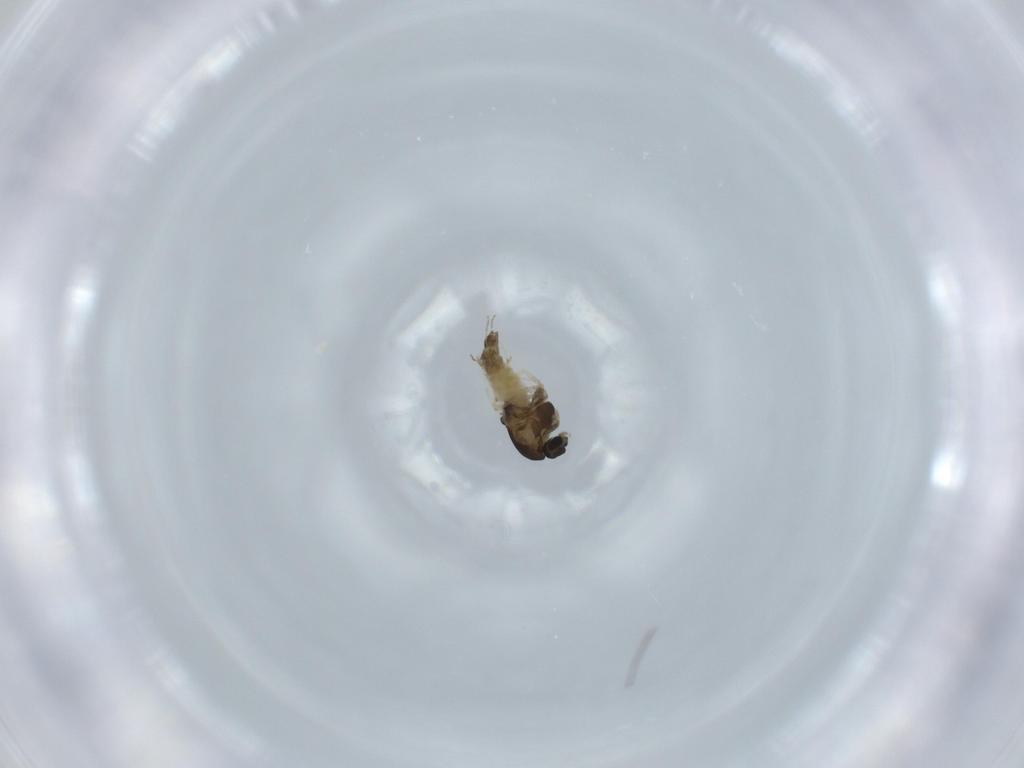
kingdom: Animalia
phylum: Arthropoda
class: Insecta
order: Diptera
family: Chironomidae
